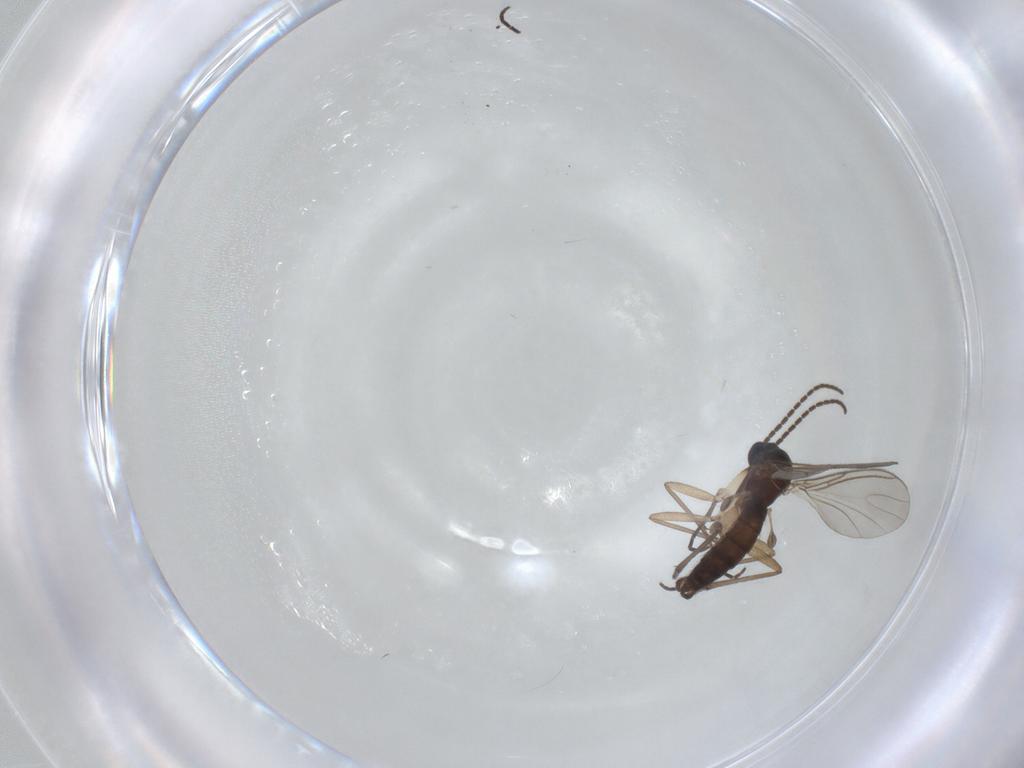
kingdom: Animalia
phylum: Arthropoda
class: Insecta
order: Diptera
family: Sciaridae
